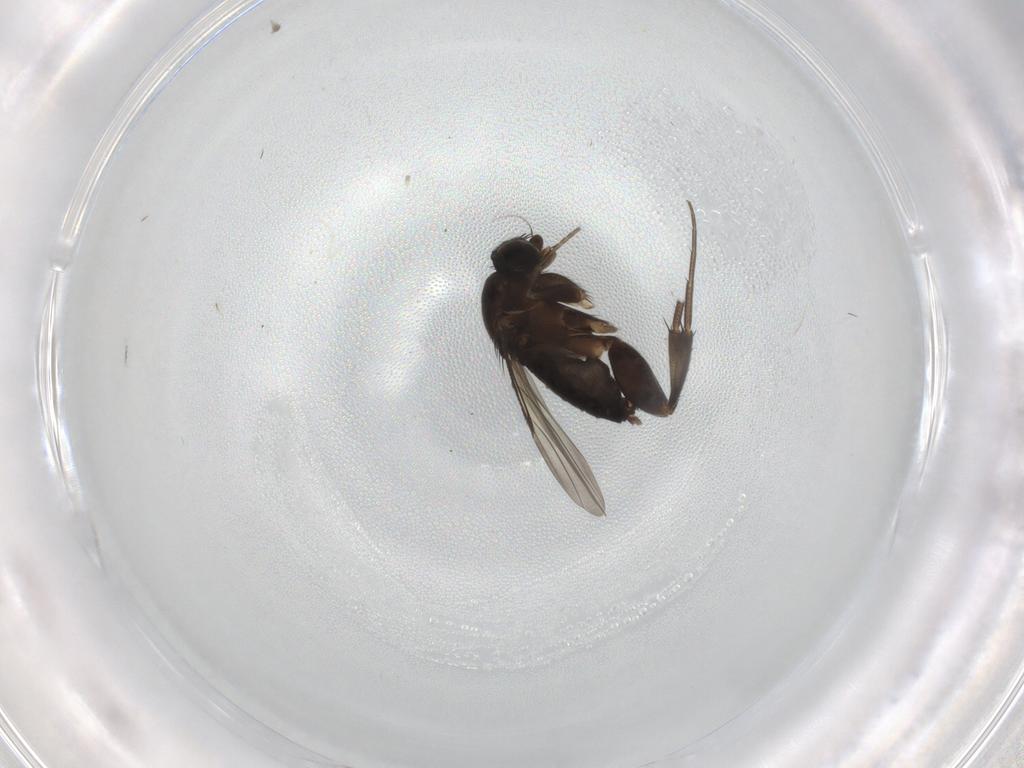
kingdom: Animalia
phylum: Arthropoda
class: Insecta
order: Diptera
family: Phoridae
